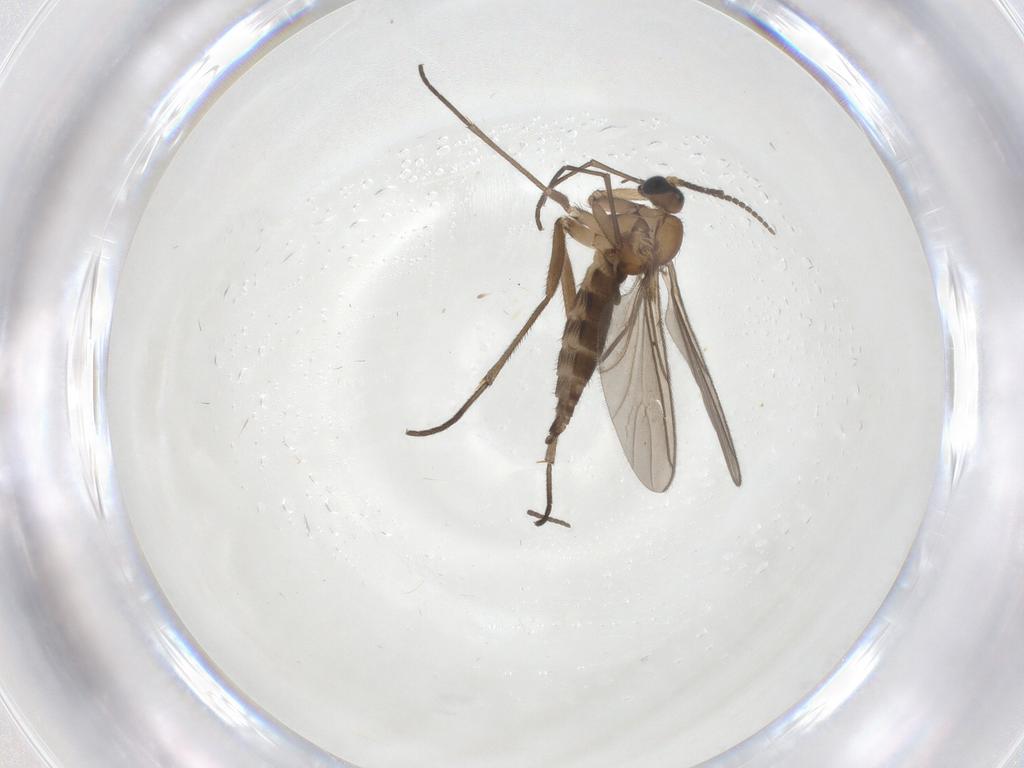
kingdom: Animalia
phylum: Arthropoda
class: Insecta
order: Diptera
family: Sciaridae
